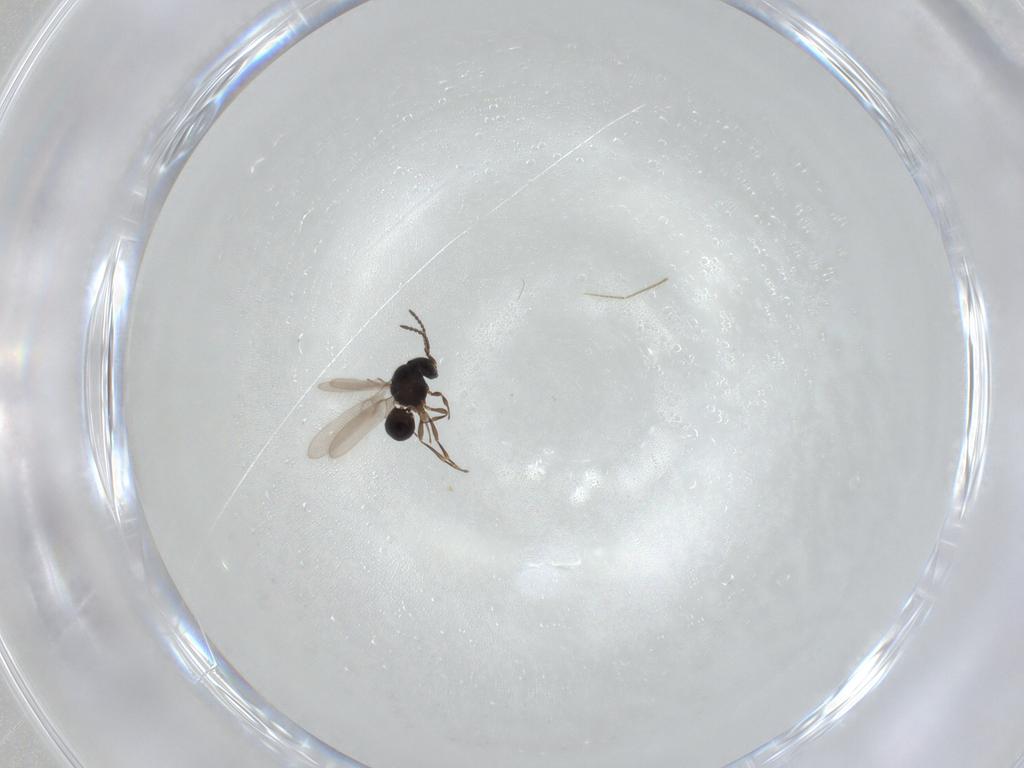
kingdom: Animalia
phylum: Arthropoda
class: Insecta
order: Hymenoptera
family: Scelionidae
